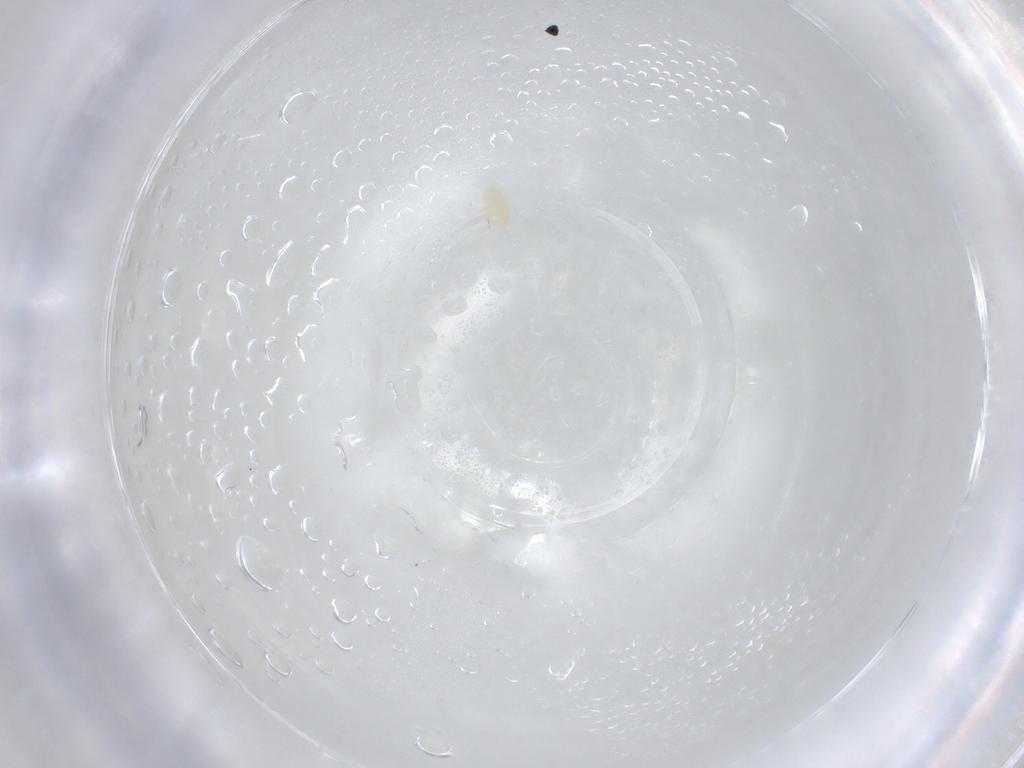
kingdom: Animalia
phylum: Arthropoda
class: Arachnida
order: Trombidiformes
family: Eupodidae
